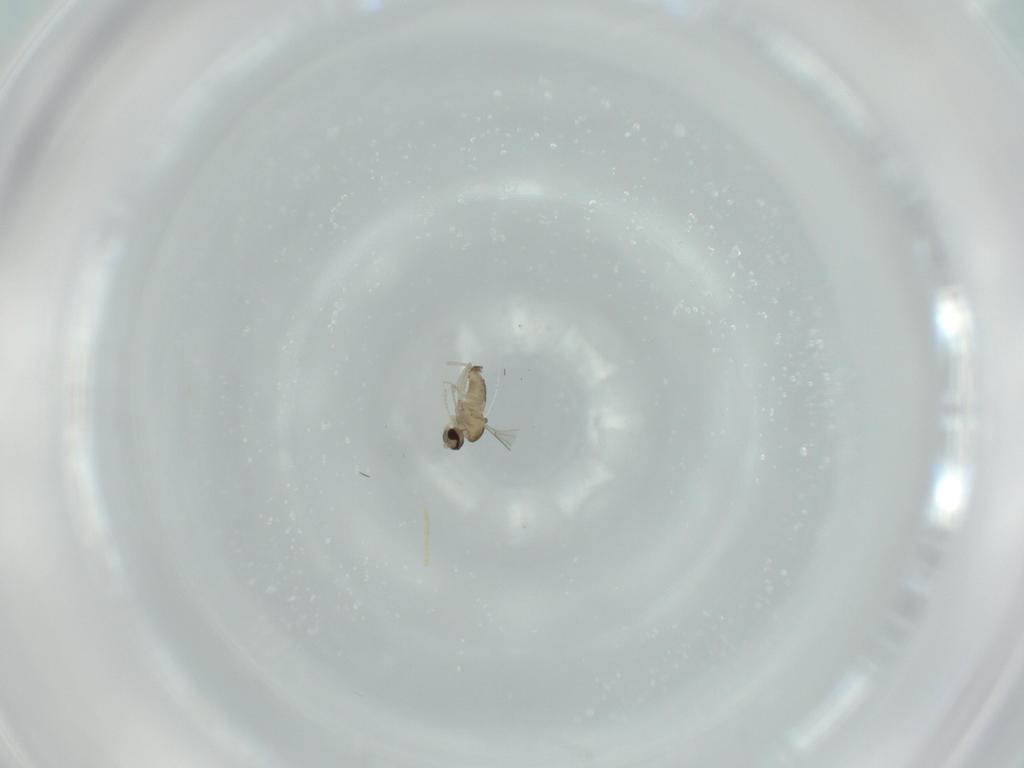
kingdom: Animalia
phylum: Arthropoda
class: Insecta
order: Diptera
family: Cecidomyiidae
